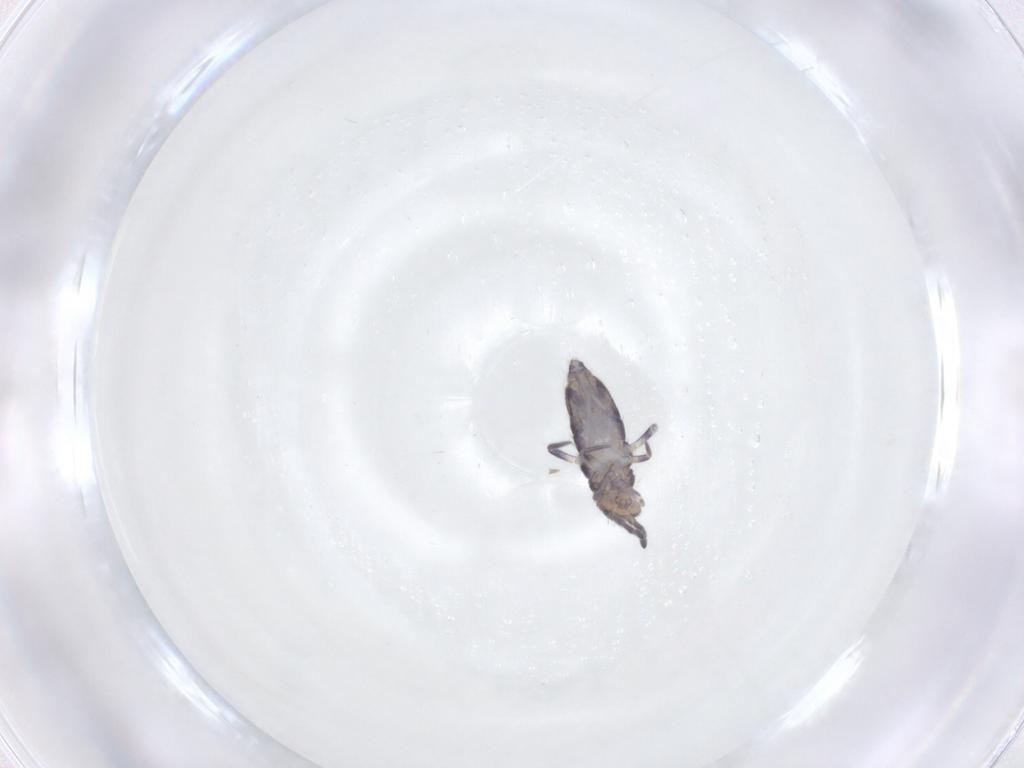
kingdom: Animalia
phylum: Arthropoda
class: Collembola
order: Entomobryomorpha
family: Entomobryidae
